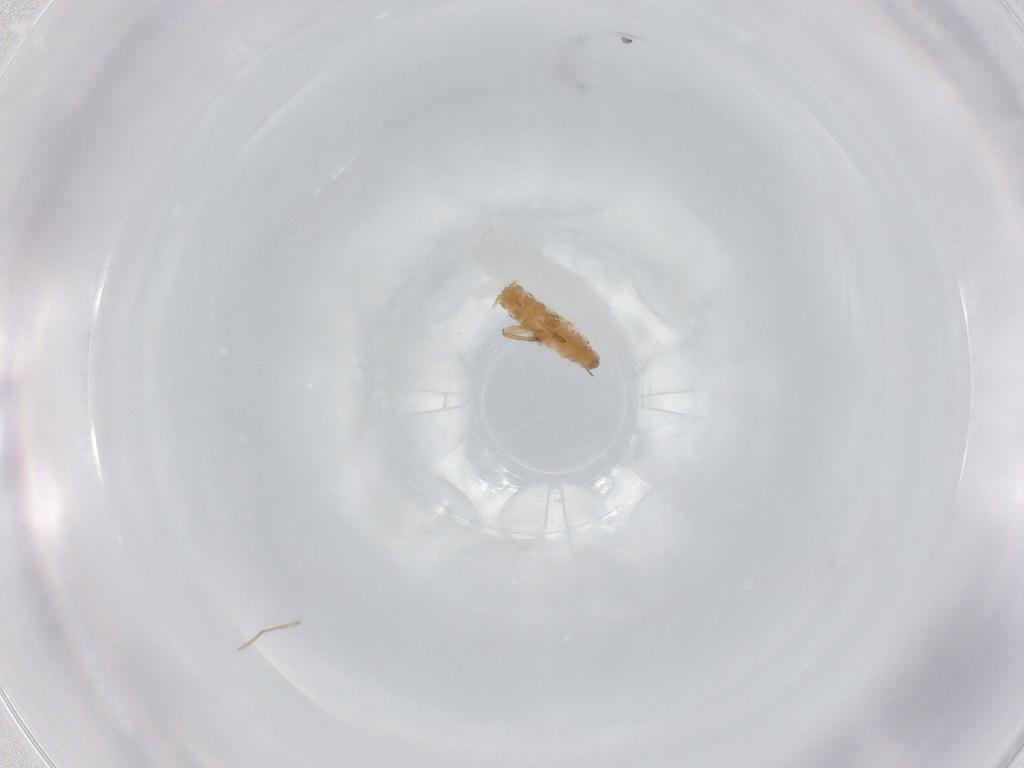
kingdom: Animalia
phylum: Arthropoda
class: Insecta
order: Hemiptera
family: Aphididae
